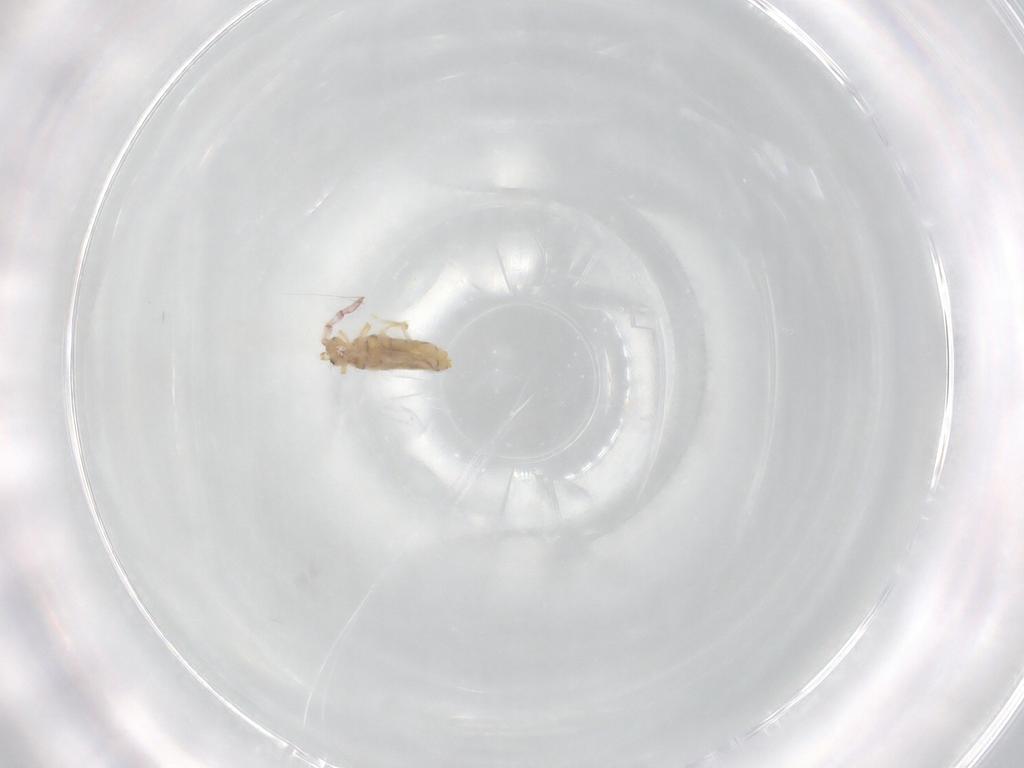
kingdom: Animalia
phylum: Arthropoda
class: Collembola
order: Entomobryomorpha
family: Entomobryidae
